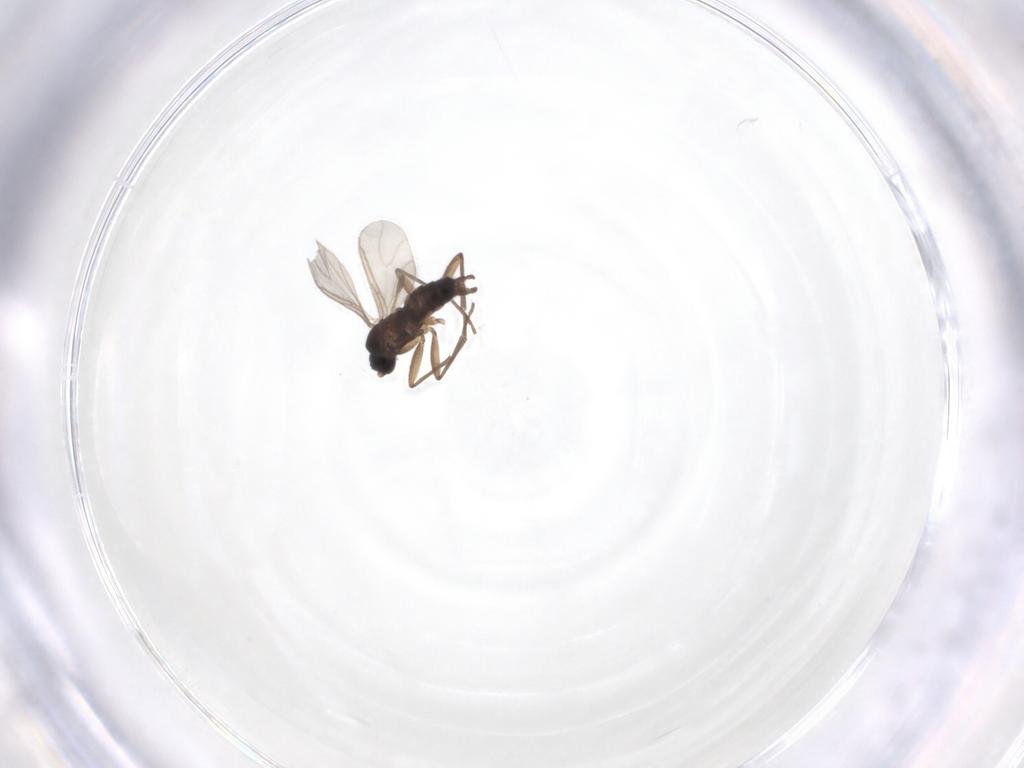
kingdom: Animalia
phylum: Arthropoda
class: Insecta
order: Diptera
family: Sciaridae
